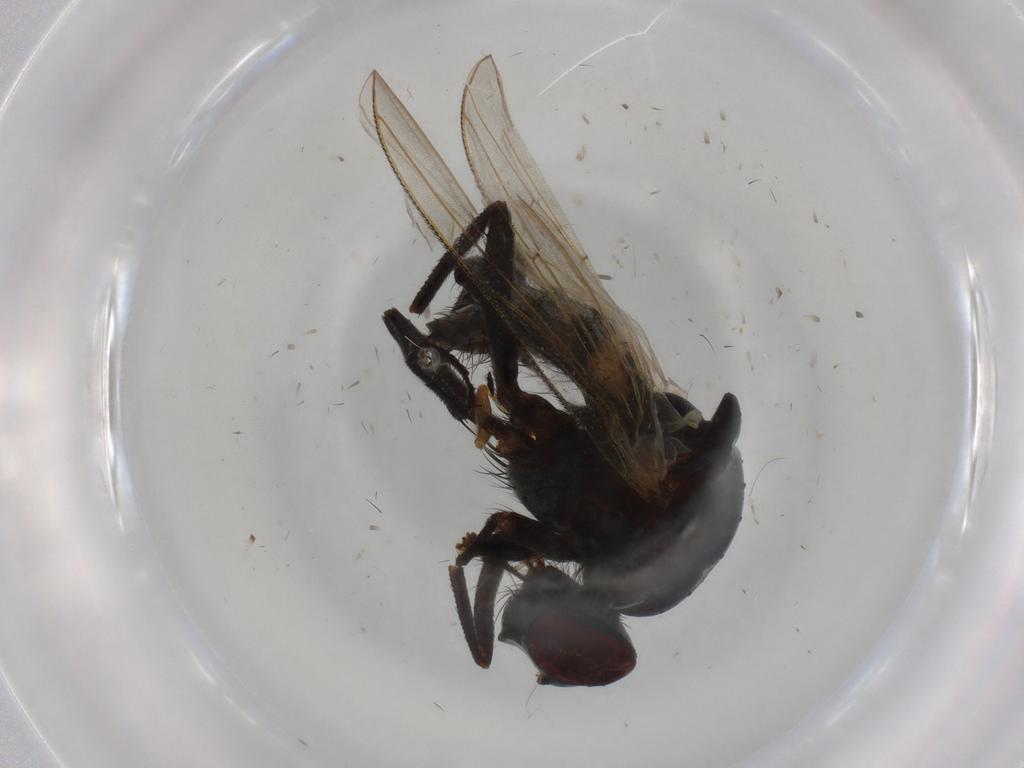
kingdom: Animalia
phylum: Arthropoda
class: Insecta
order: Diptera
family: Anthomyiidae
